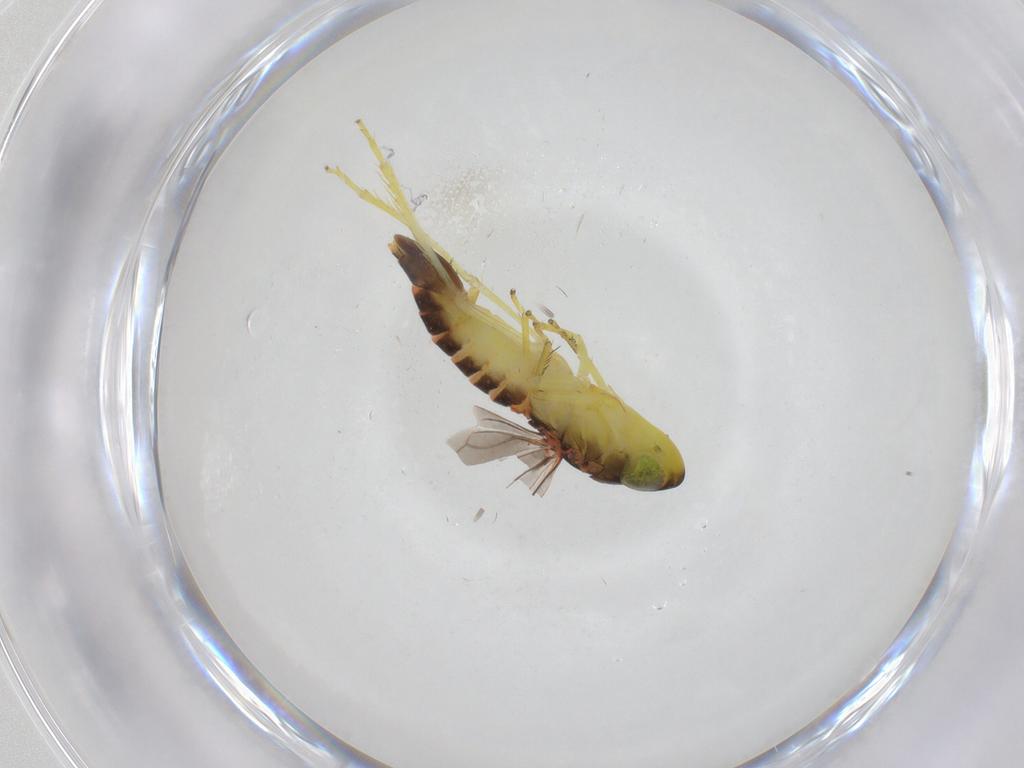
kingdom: Animalia
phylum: Arthropoda
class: Insecta
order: Hemiptera
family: Cicadellidae
